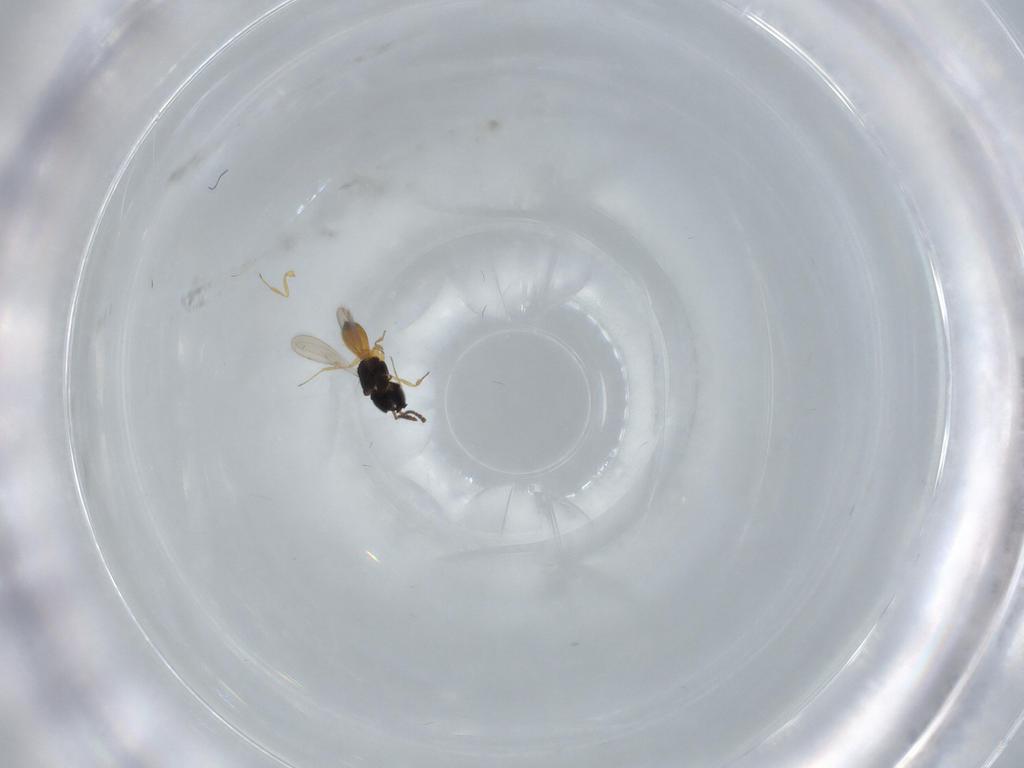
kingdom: Animalia
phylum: Arthropoda
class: Insecta
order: Hymenoptera
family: Scelionidae
